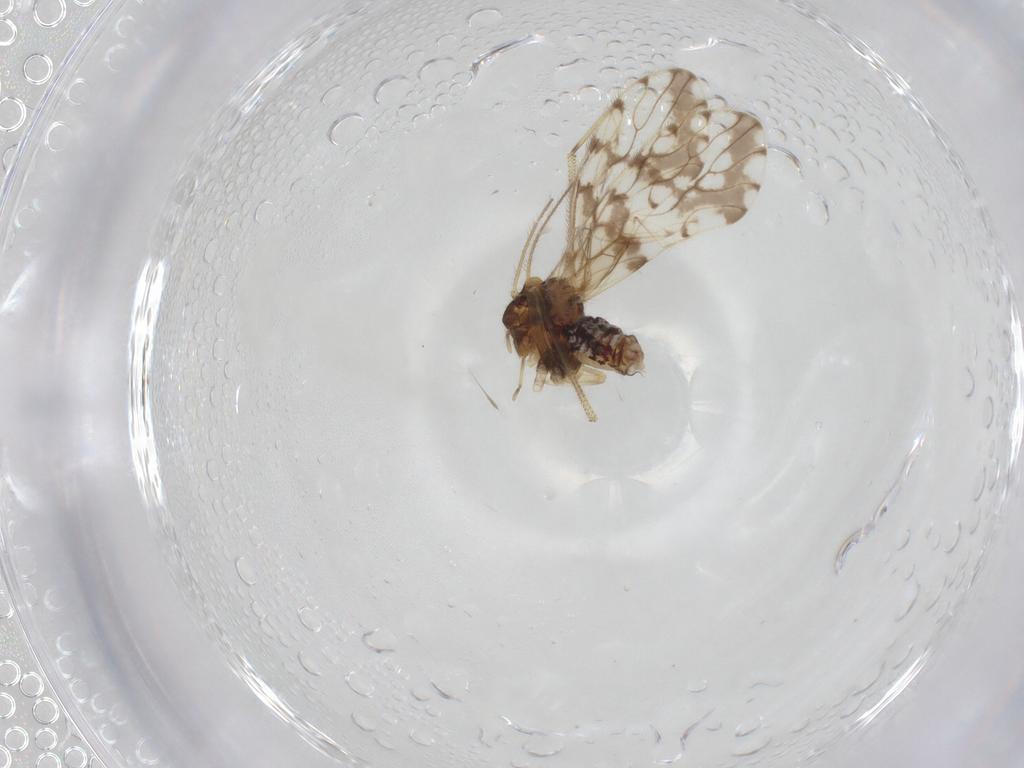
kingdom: Animalia
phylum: Arthropoda
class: Insecta
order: Psocodea
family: Epipsocidae
